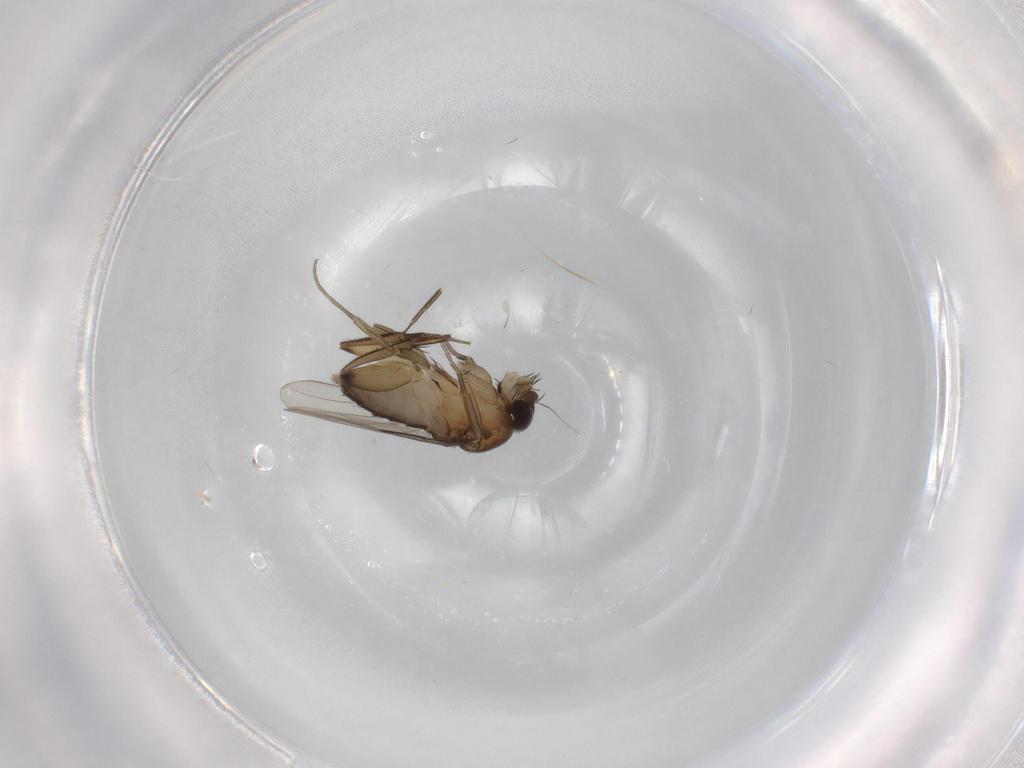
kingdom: Animalia
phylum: Arthropoda
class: Insecta
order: Diptera
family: Phoridae
